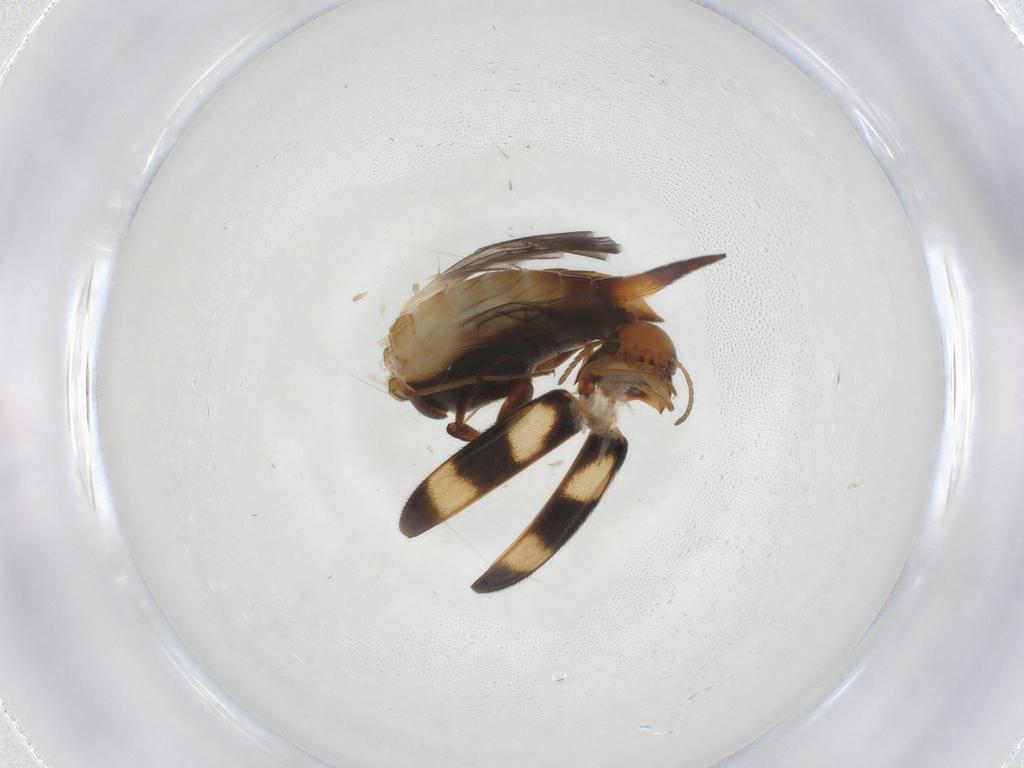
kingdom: Animalia
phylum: Arthropoda
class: Insecta
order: Coleoptera
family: Mordellidae
